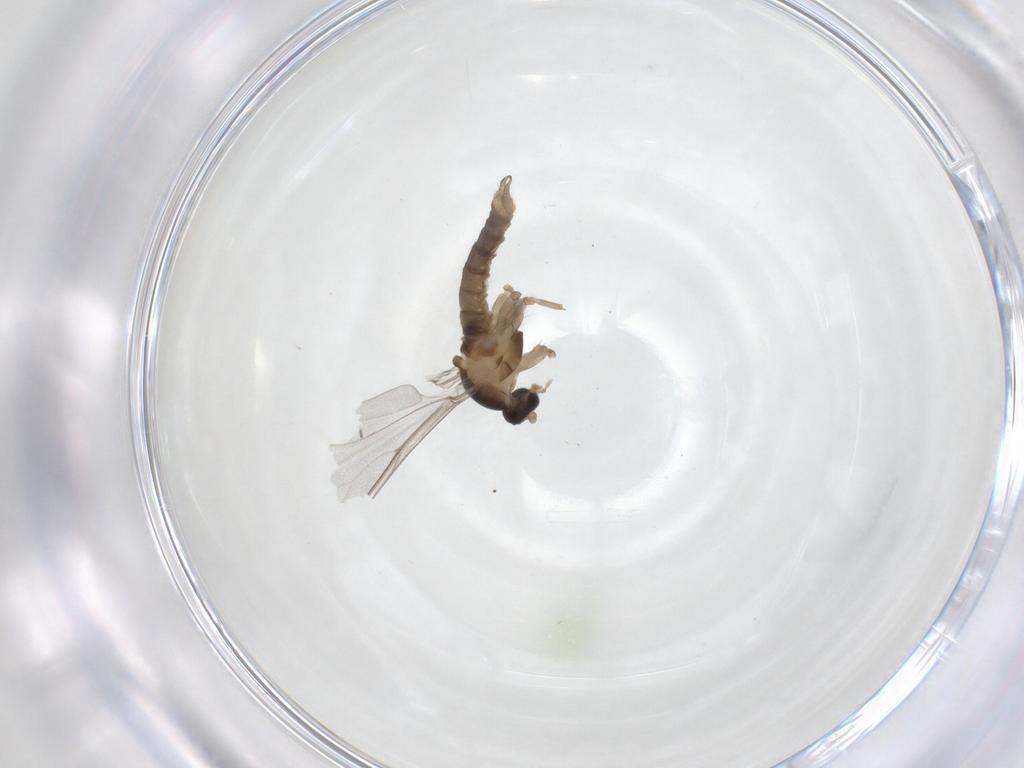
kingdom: Animalia
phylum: Arthropoda
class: Insecta
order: Diptera
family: Cecidomyiidae
